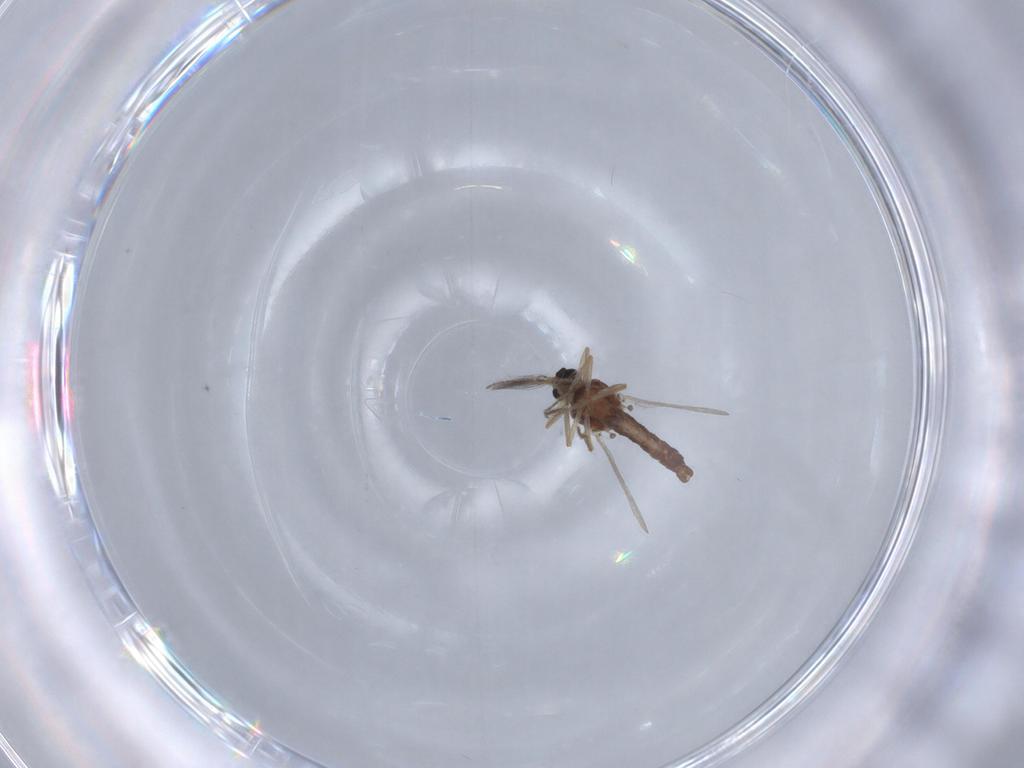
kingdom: Animalia
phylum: Arthropoda
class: Insecta
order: Diptera
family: Ceratopogonidae
